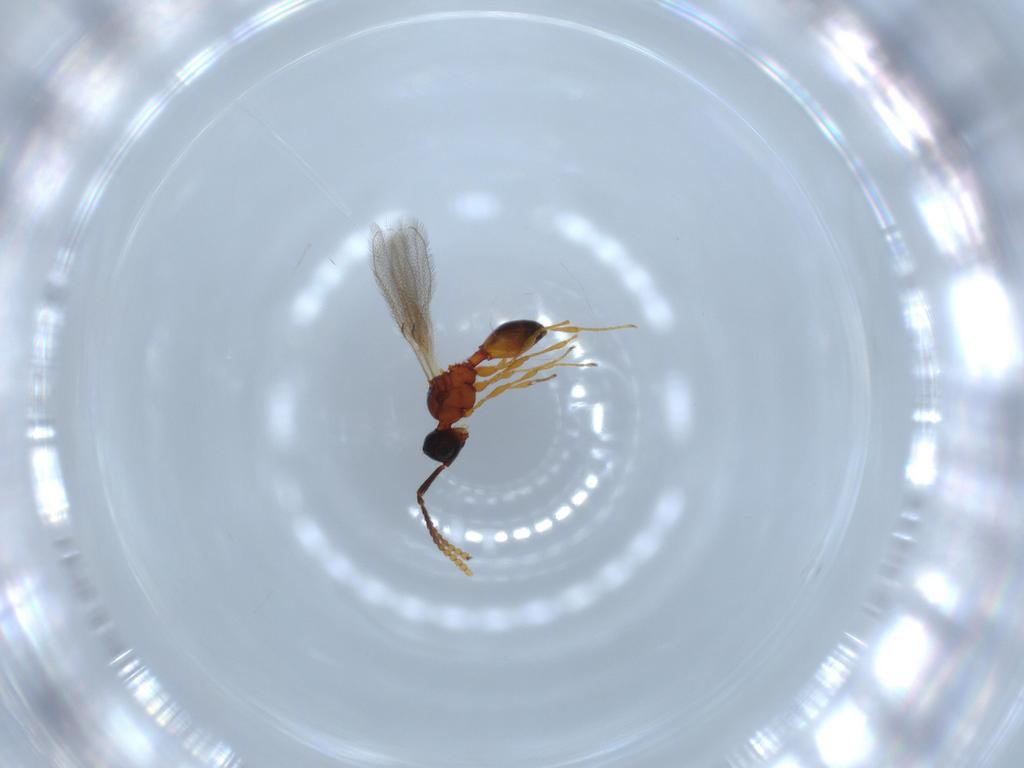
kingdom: Animalia
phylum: Arthropoda
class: Insecta
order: Hymenoptera
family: Diapriidae
